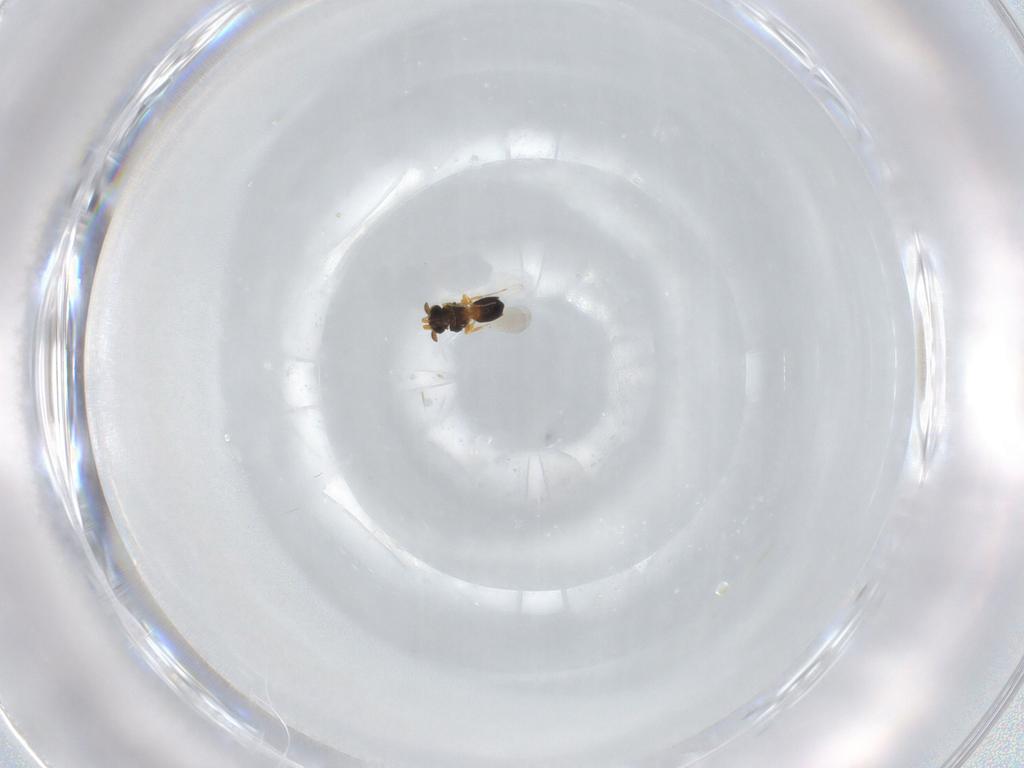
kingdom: Animalia
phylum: Arthropoda
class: Insecta
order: Hymenoptera
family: Platygastridae
